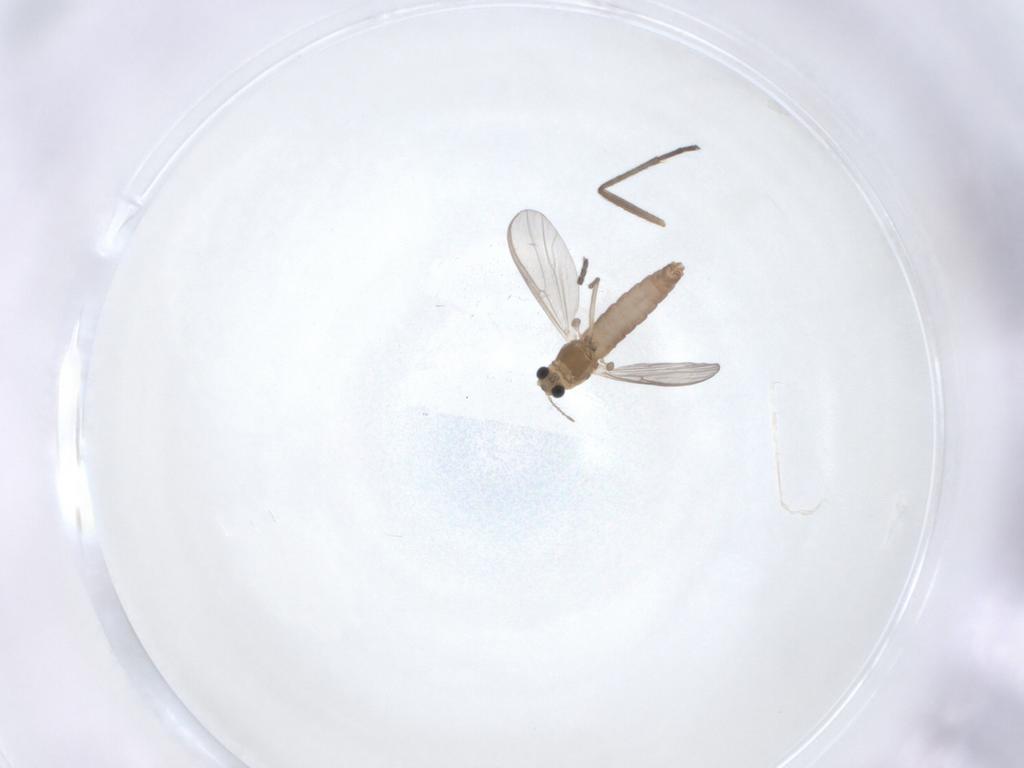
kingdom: Animalia
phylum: Arthropoda
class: Insecta
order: Diptera
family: Chironomidae
